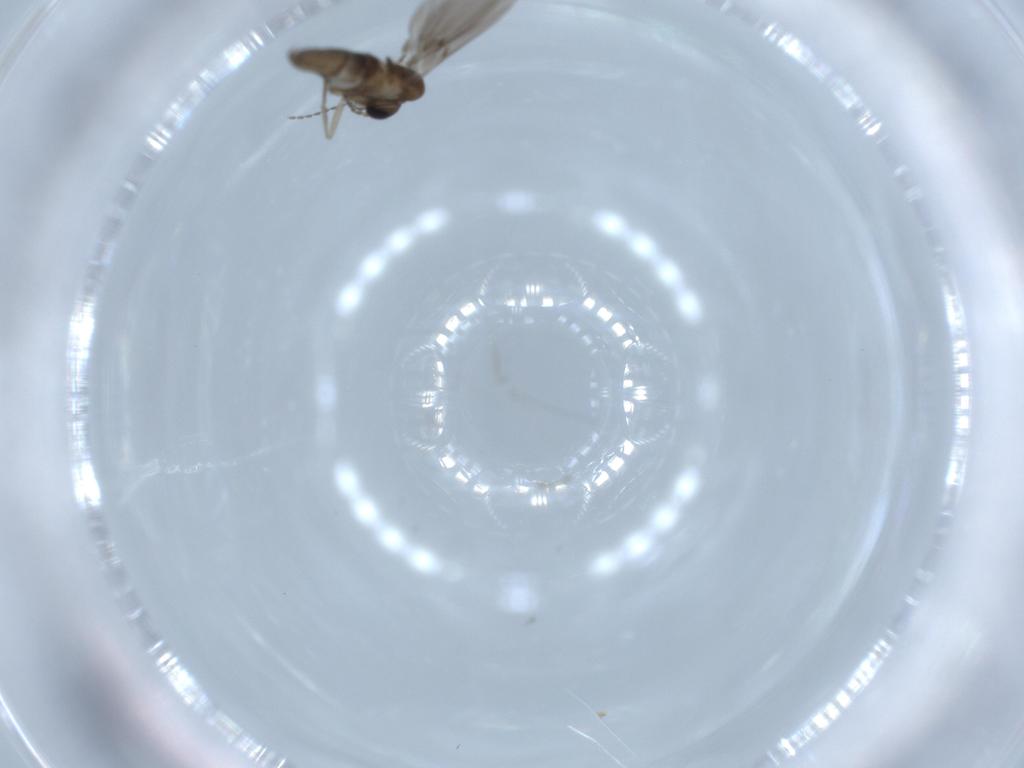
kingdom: Animalia
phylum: Arthropoda
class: Insecta
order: Diptera
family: Psychodidae
